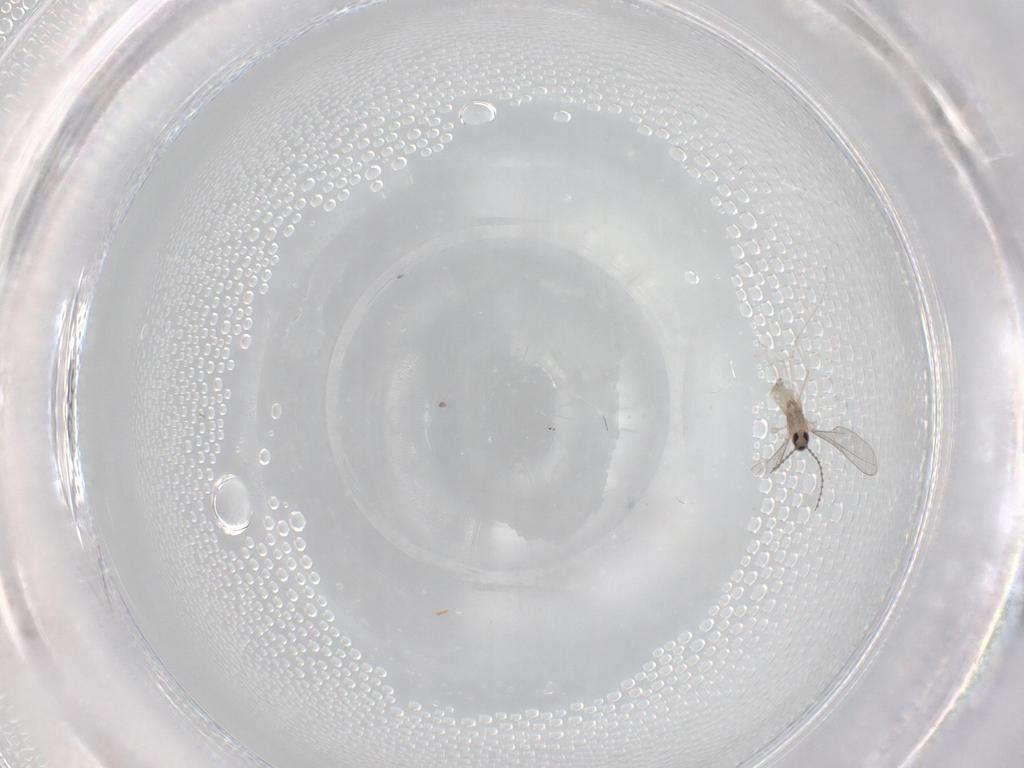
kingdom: Animalia
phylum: Arthropoda
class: Insecta
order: Diptera
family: Cecidomyiidae
